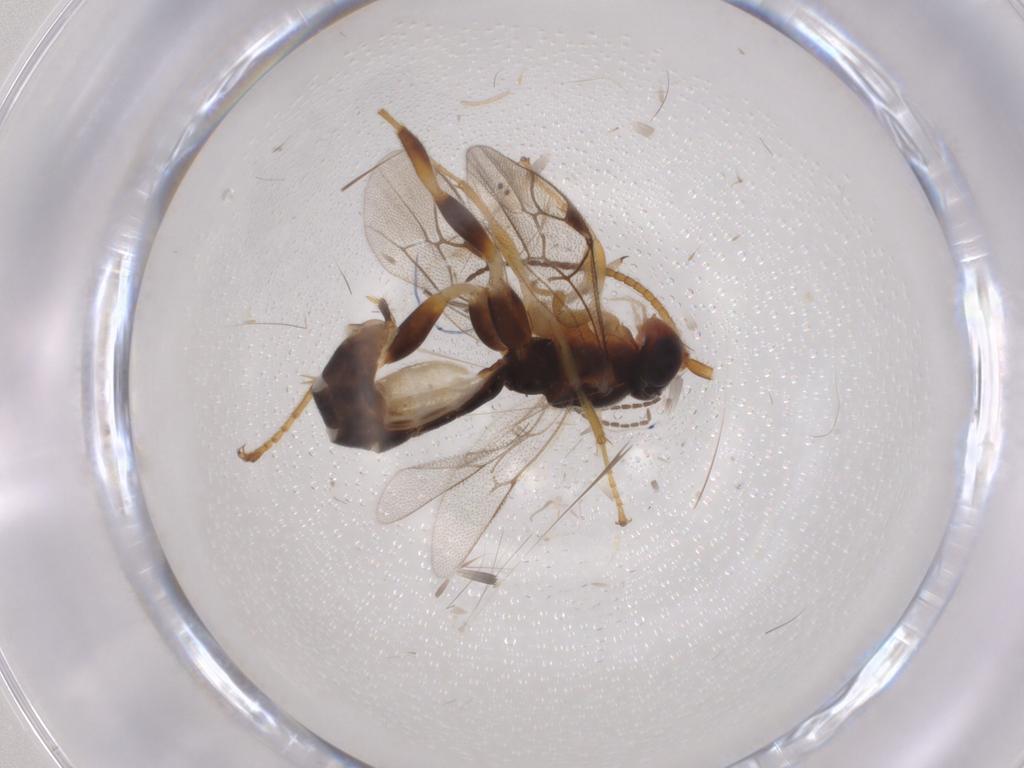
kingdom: Animalia
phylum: Arthropoda
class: Insecta
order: Hymenoptera
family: Ichneumonidae
